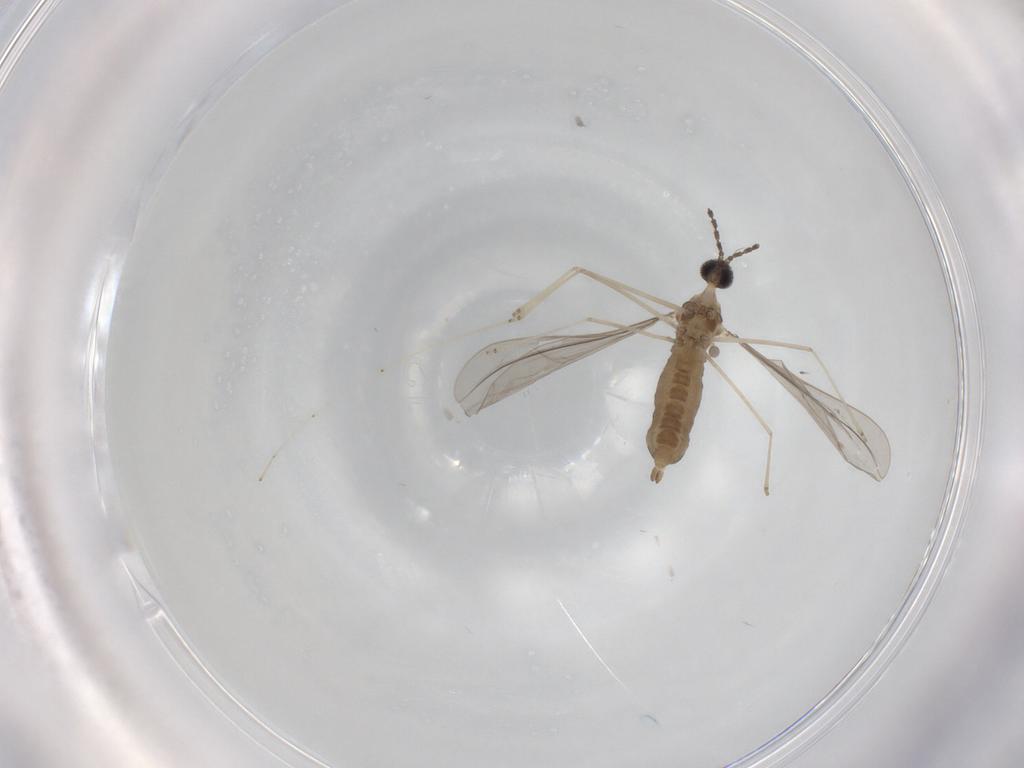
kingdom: Animalia
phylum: Arthropoda
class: Insecta
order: Diptera
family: Cecidomyiidae
